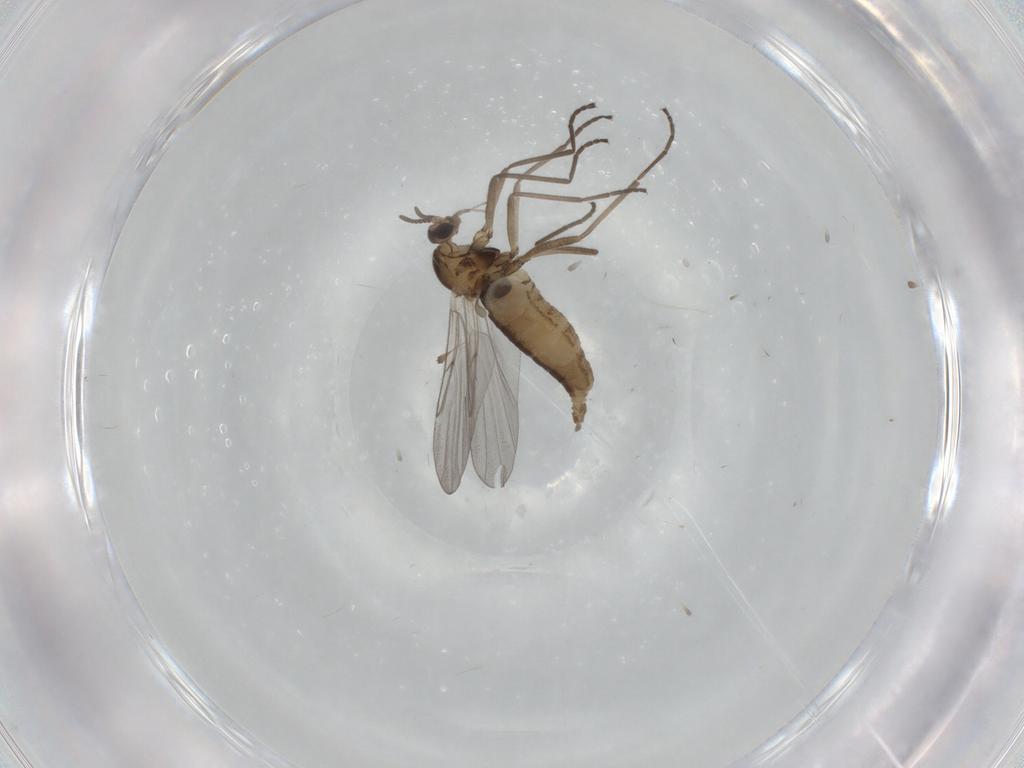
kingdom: Animalia
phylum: Arthropoda
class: Insecta
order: Diptera
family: Cecidomyiidae
